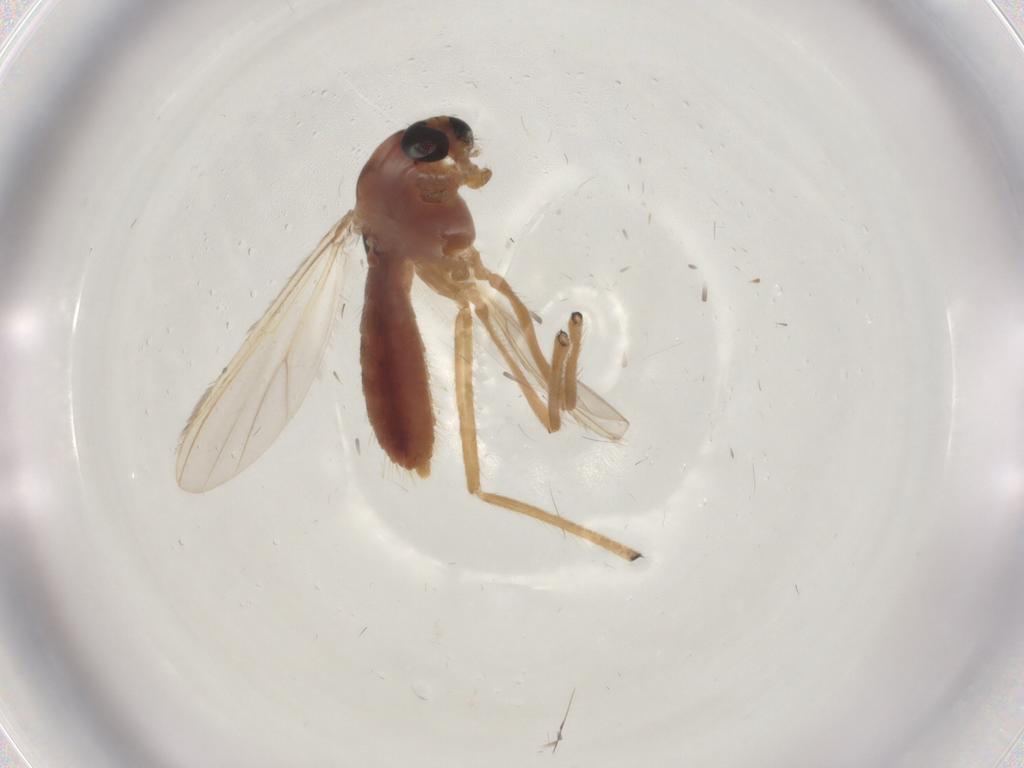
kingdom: Animalia
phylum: Arthropoda
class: Insecta
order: Diptera
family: Chironomidae
